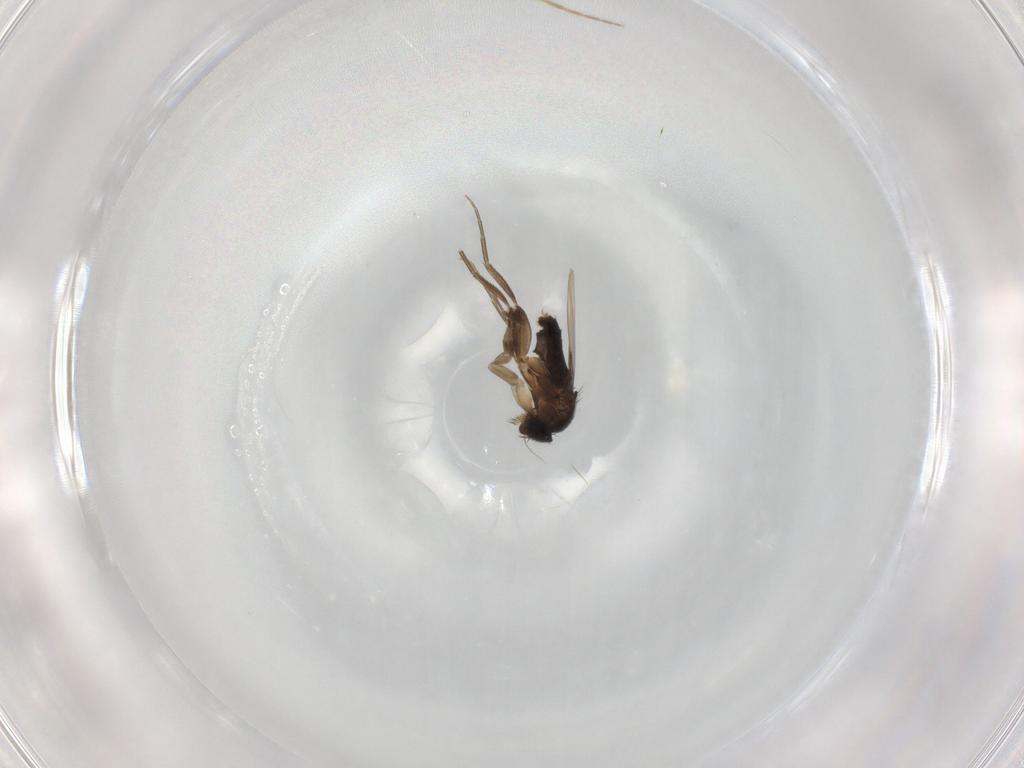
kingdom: Animalia
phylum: Arthropoda
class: Insecta
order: Diptera
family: Chironomidae
